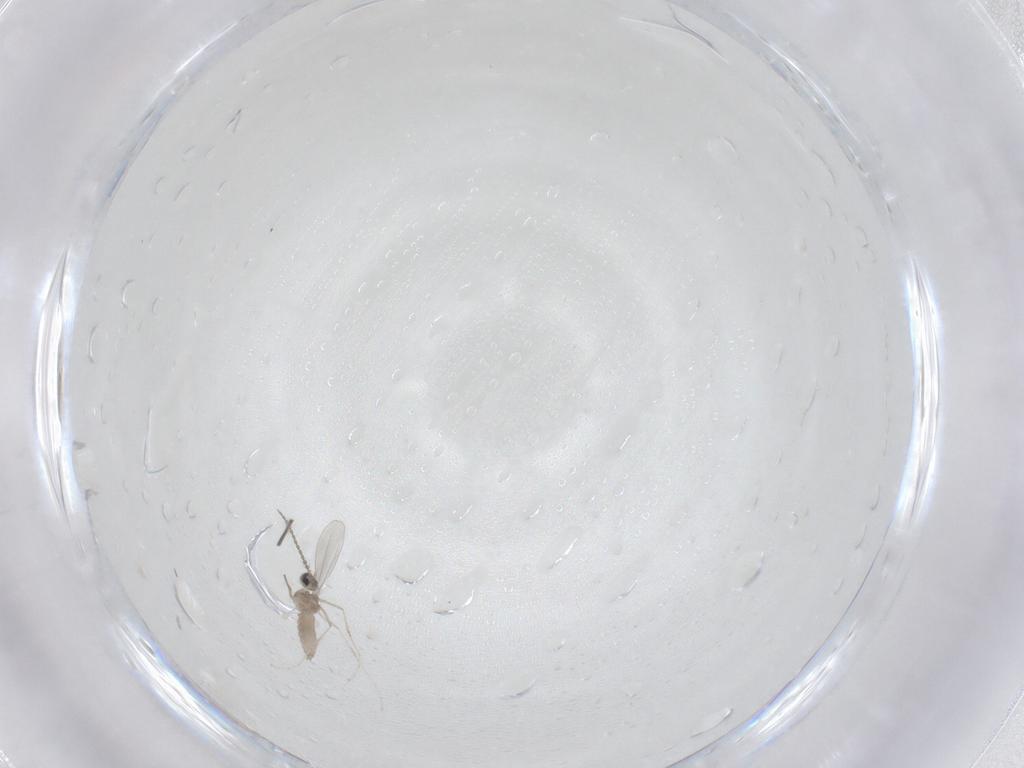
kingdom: Animalia
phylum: Arthropoda
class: Insecta
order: Diptera
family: Cecidomyiidae
